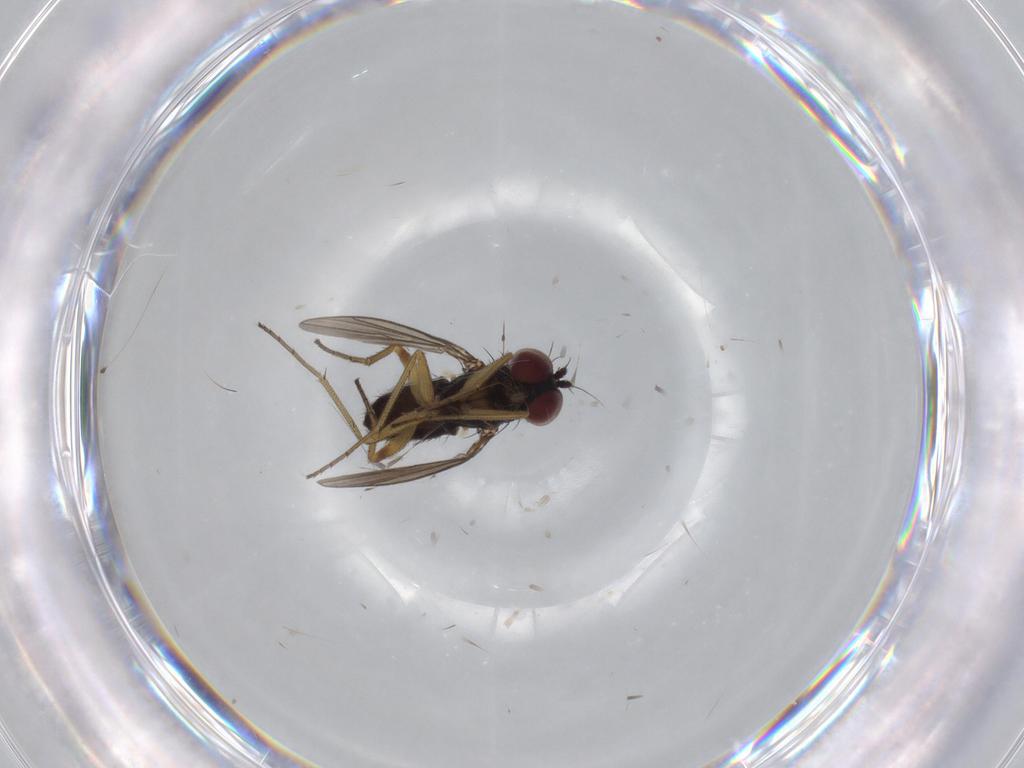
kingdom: Animalia
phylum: Arthropoda
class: Insecta
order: Diptera
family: Dolichopodidae
